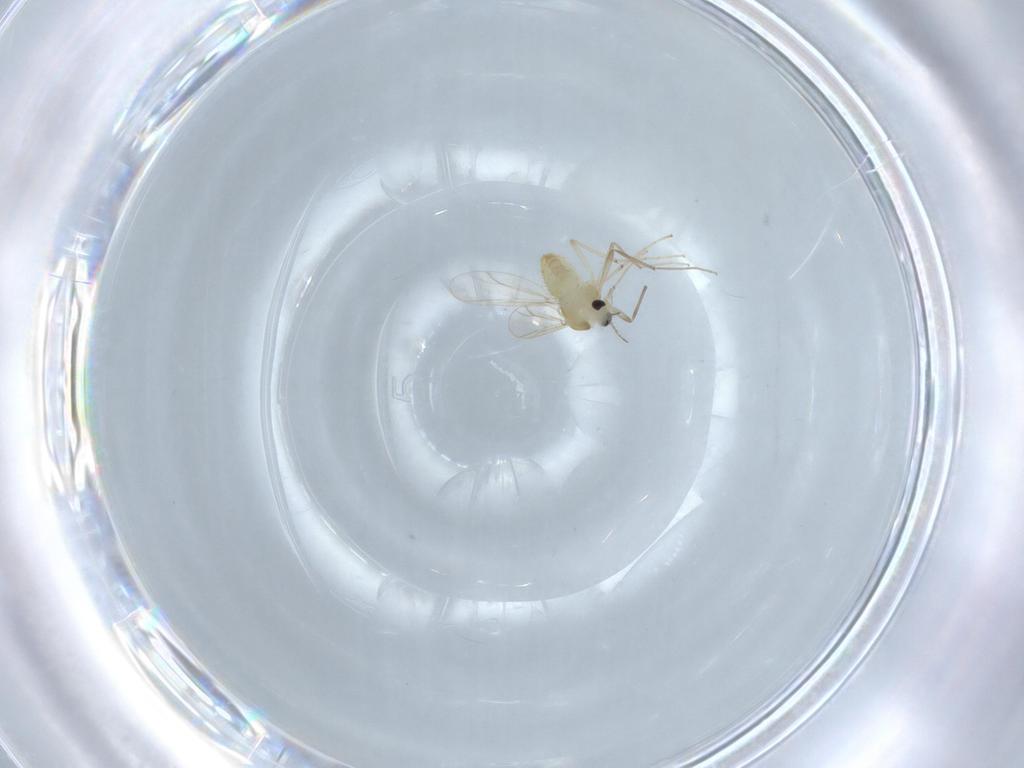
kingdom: Animalia
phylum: Arthropoda
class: Insecta
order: Diptera
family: Chironomidae
